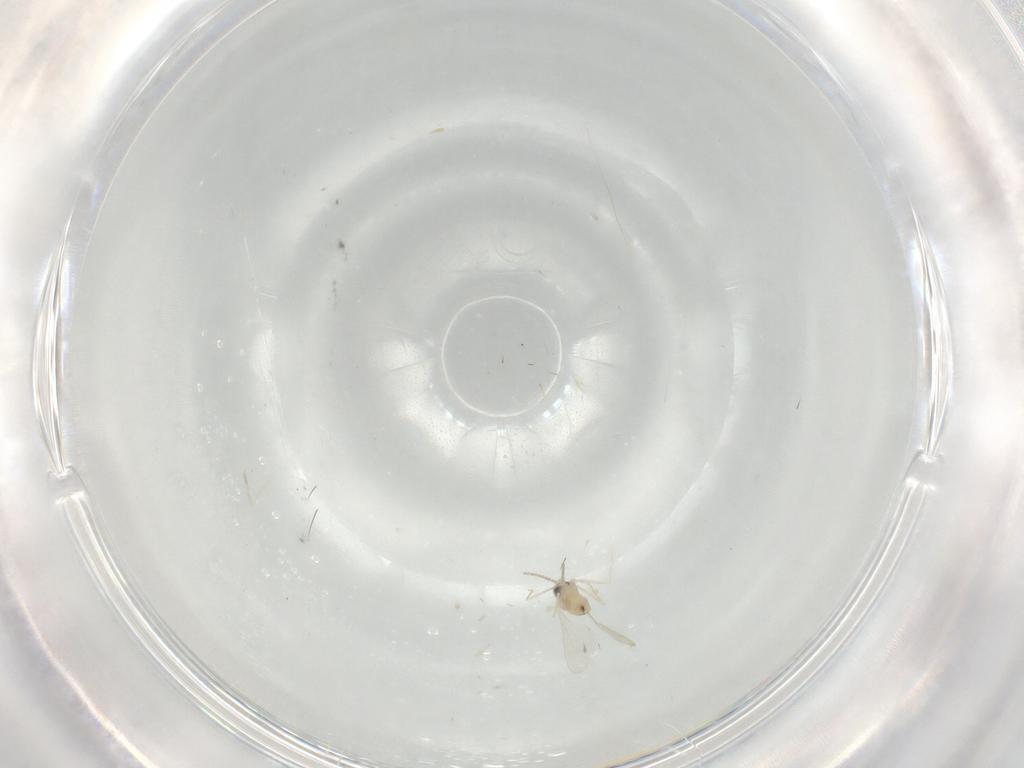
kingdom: Animalia
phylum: Arthropoda
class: Insecta
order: Diptera
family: Cecidomyiidae
